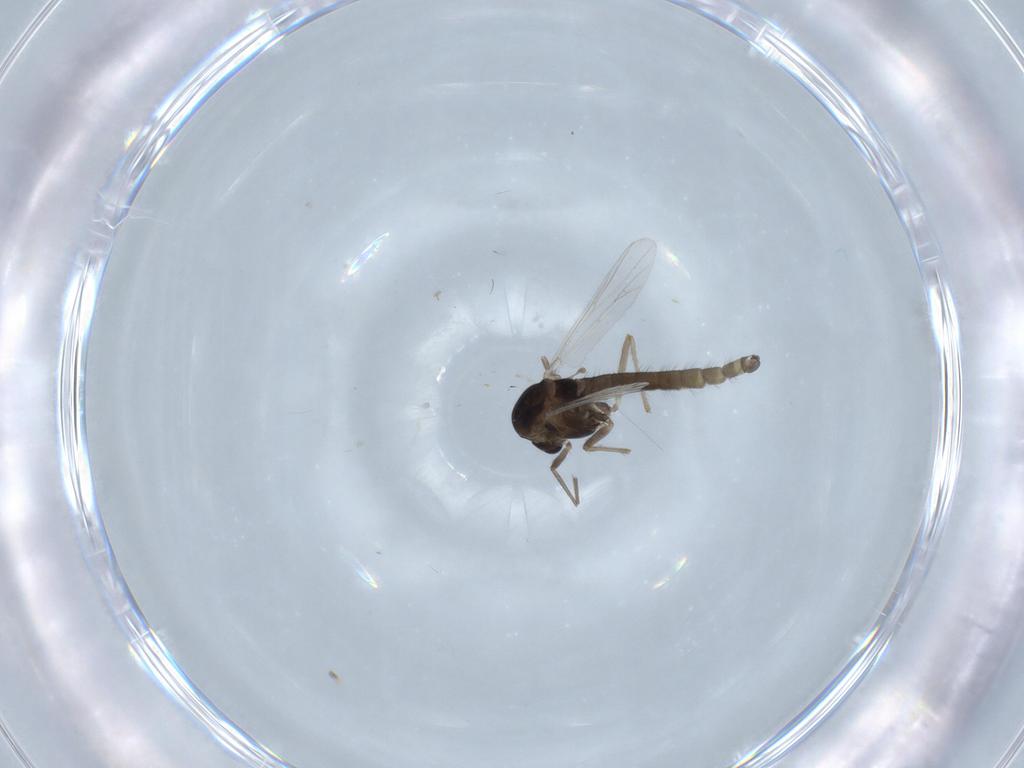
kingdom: Animalia
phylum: Arthropoda
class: Insecta
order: Diptera
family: Chironomidae
